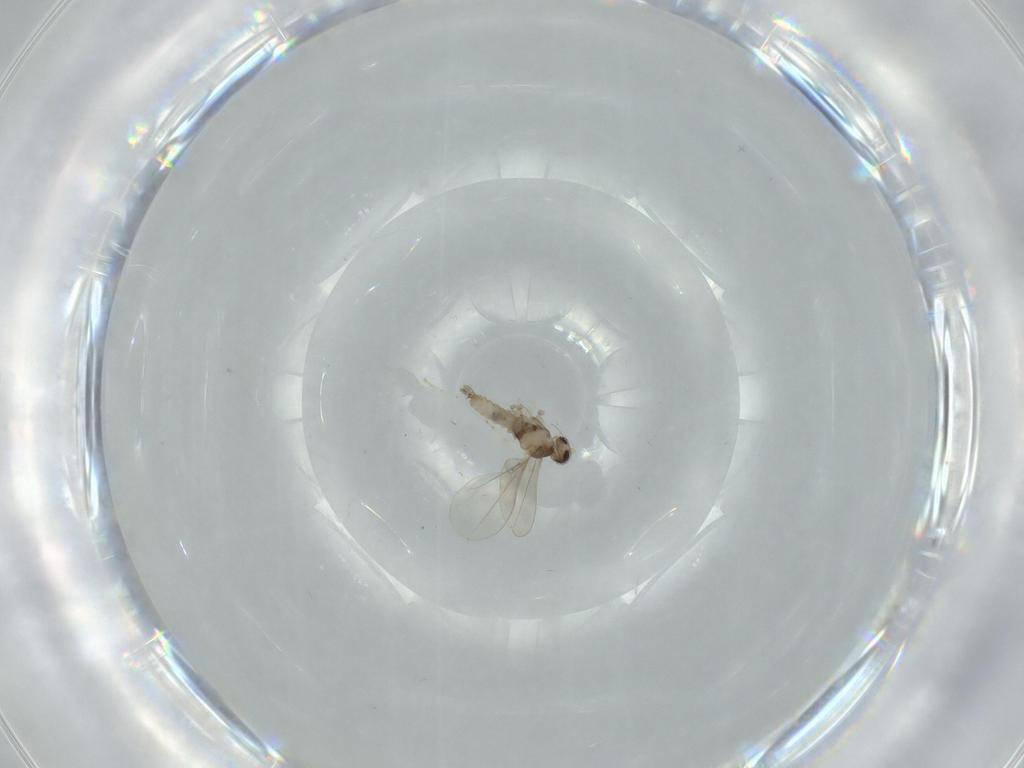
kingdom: Animalia
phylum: Arthropoda
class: Insecta
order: Diptera
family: Cecidomyiidae
